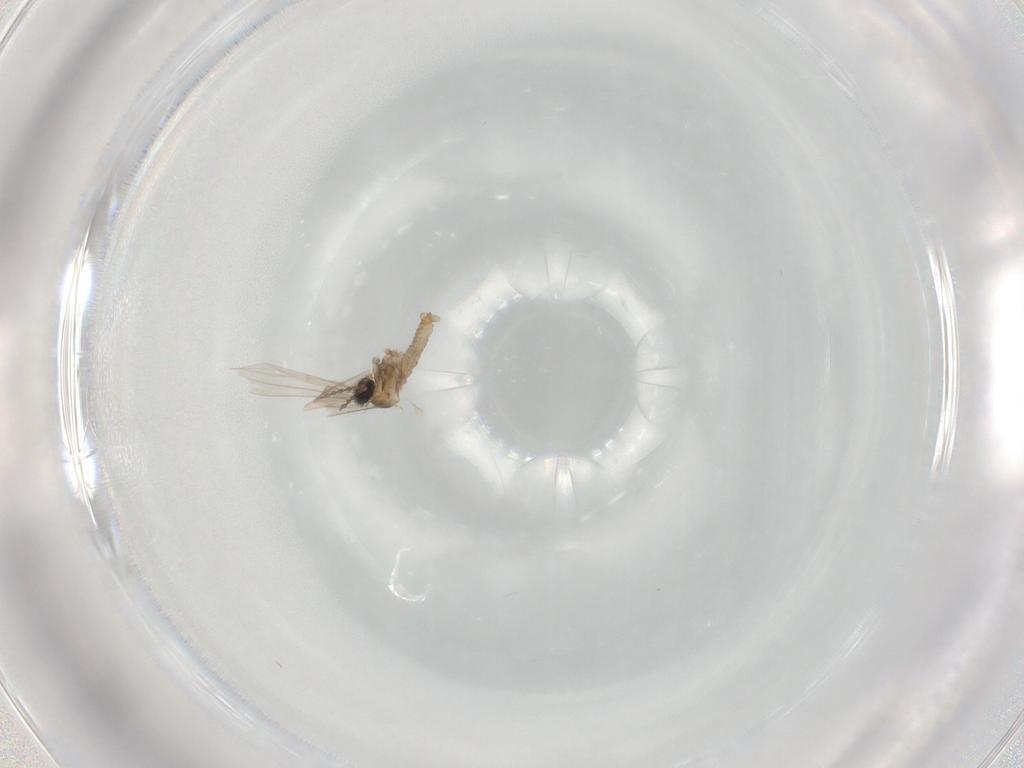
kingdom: Animalia
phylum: Arthropoda
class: Insecta
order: Diptera
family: Cecidomyiidae
